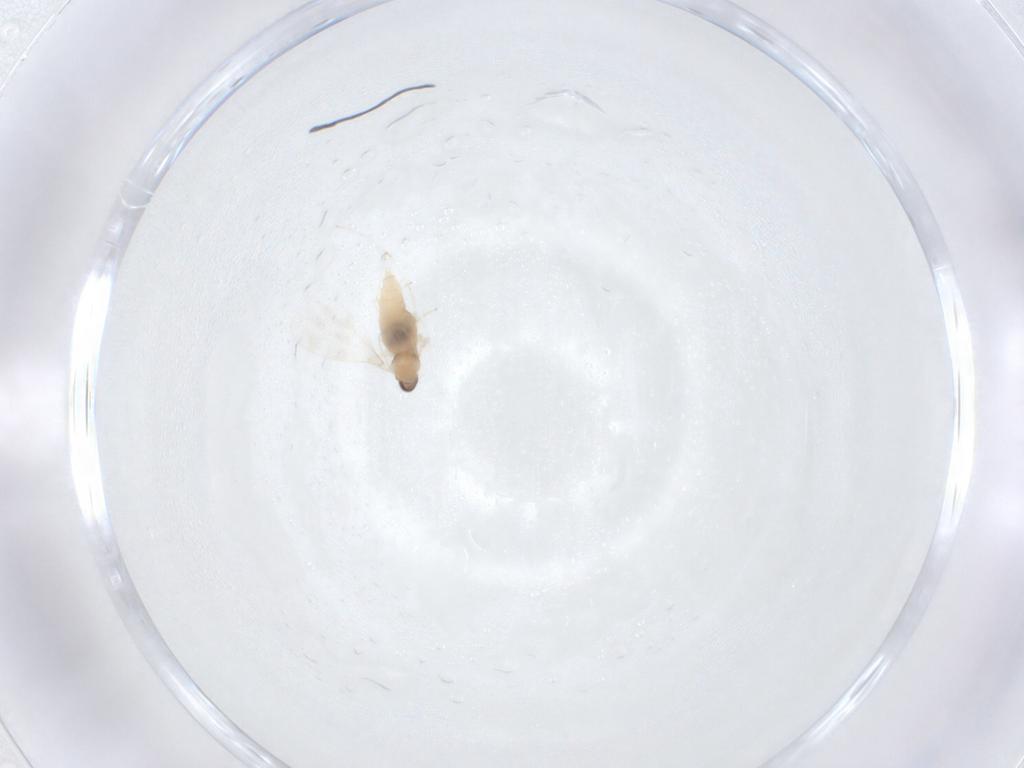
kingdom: Animalia
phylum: Arthropoda
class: Insecta
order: Diptera
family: Cecidomyiidae
